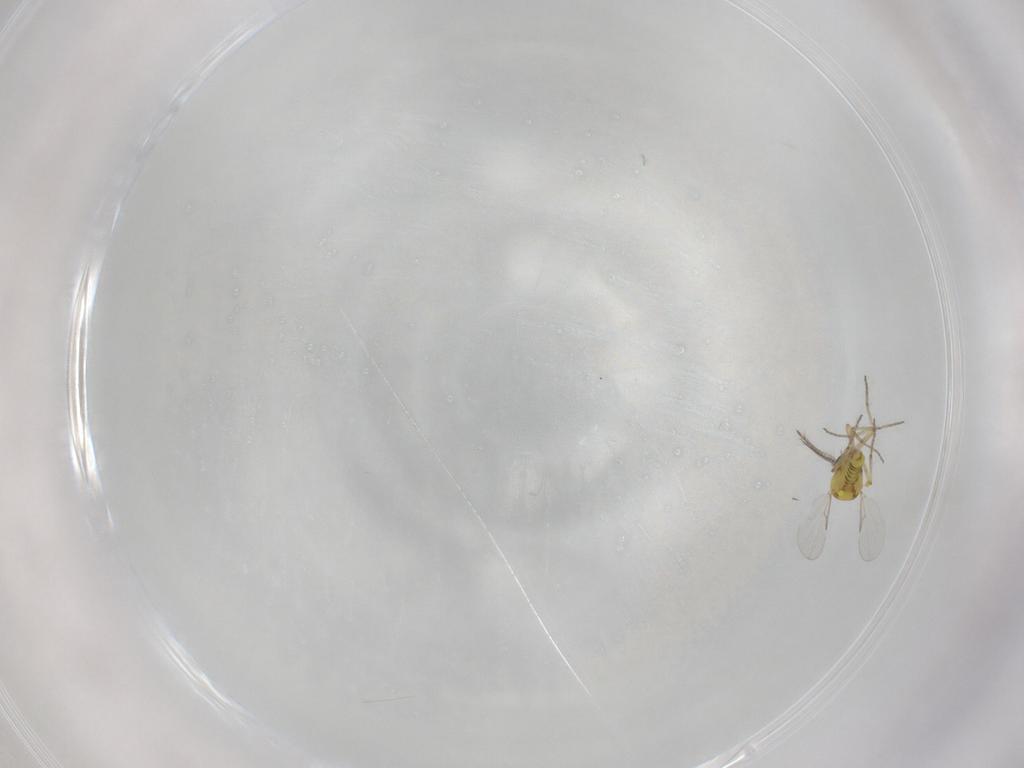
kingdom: Animalia
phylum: Arthropoda
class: Insecta
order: Diptera
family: Ceratopogonidae
